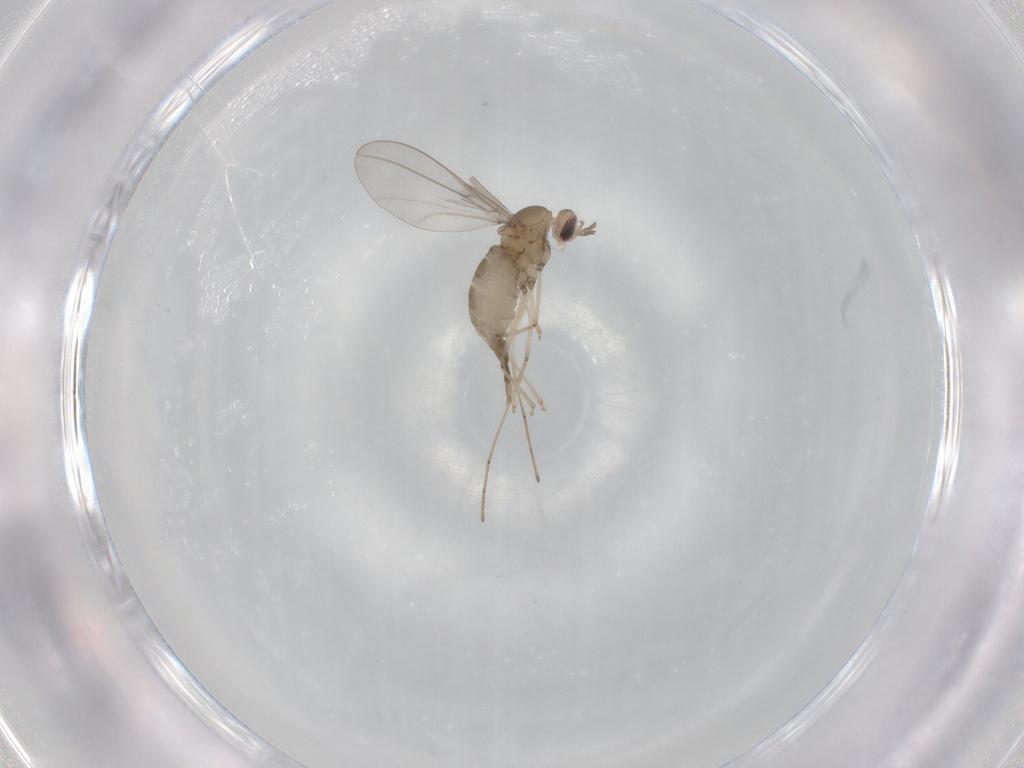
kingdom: Animalia
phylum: Arthropoda
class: Insecta
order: Diptera
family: Cecidomyiidae
